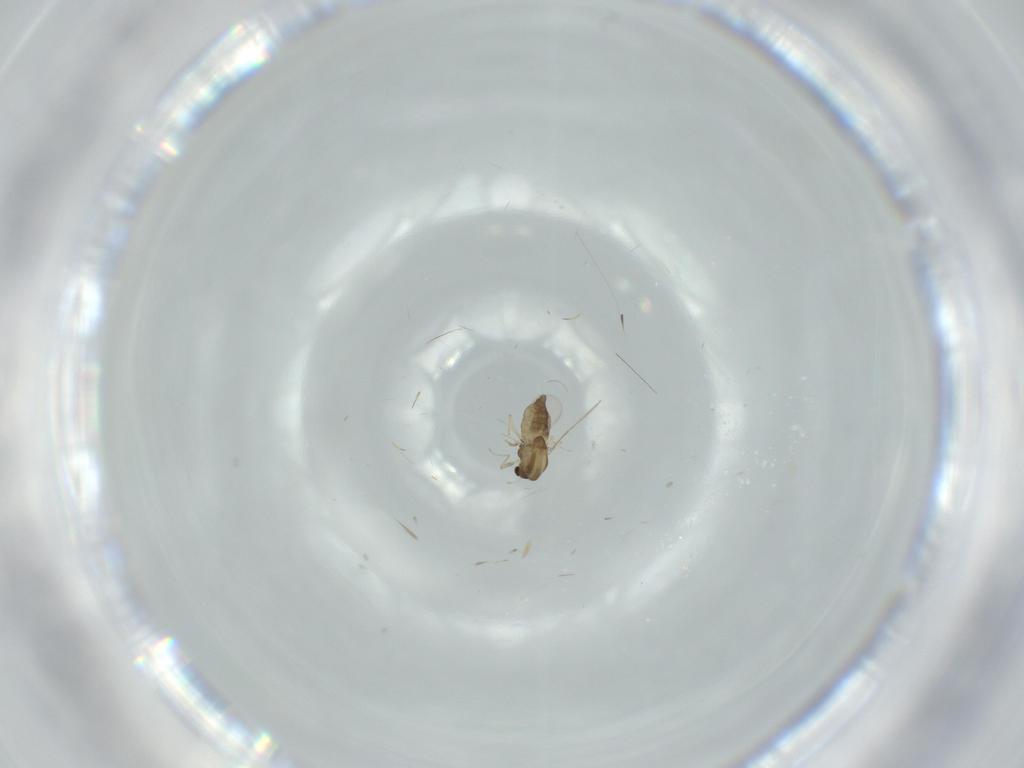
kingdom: Animalia
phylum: Arthropoda
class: Insecta
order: Diptera
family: Chironomidae
